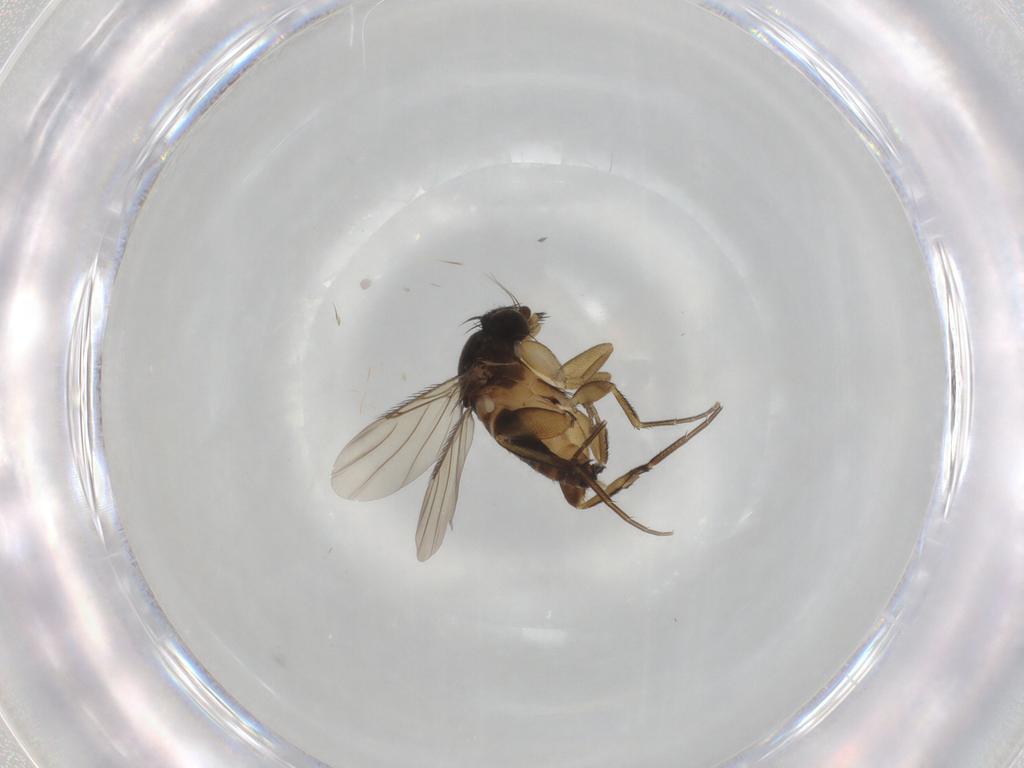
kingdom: Animalia
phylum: Arthropoda
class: Insecta
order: Diptera
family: Phoridae
